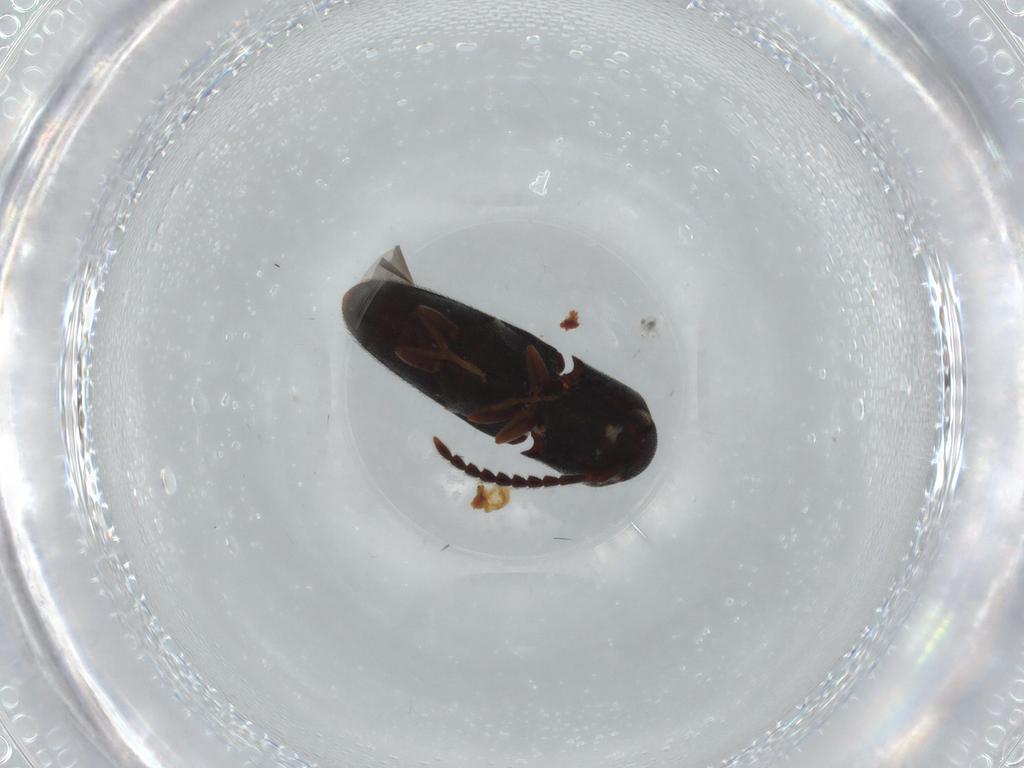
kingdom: Animalia
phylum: Arthropoda
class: Insecta
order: Coleoptera
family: Eucnemidae
